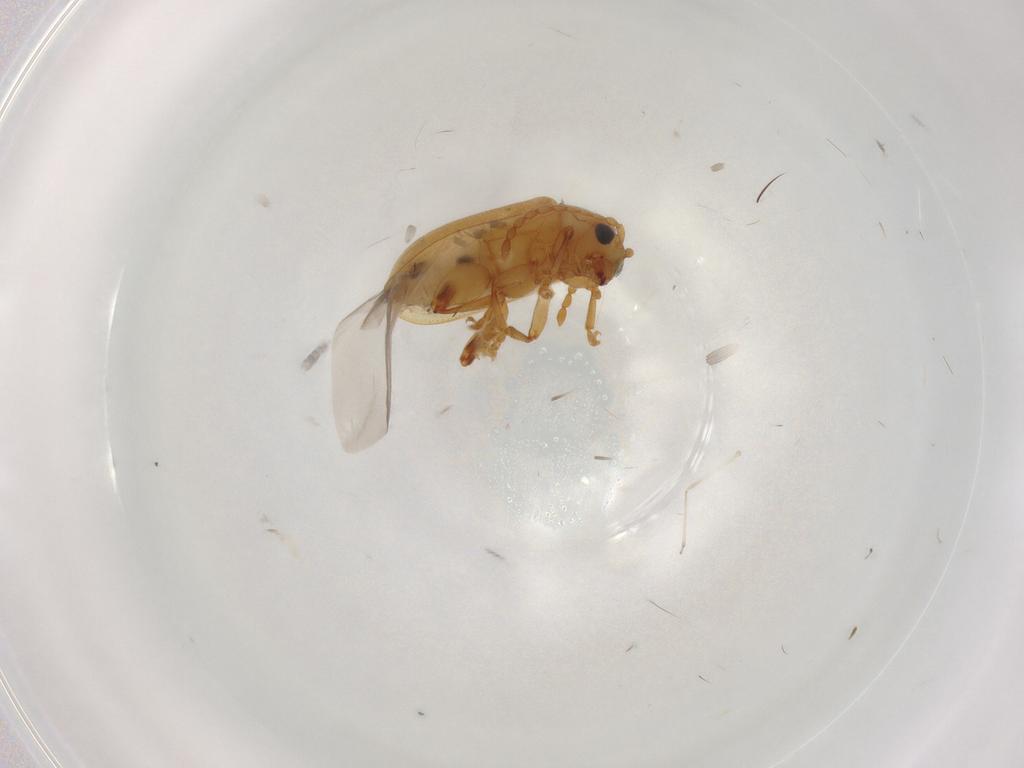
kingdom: Animalia
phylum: Arthropoda
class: Insecta
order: Coleoptera
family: Chrysomelidae
